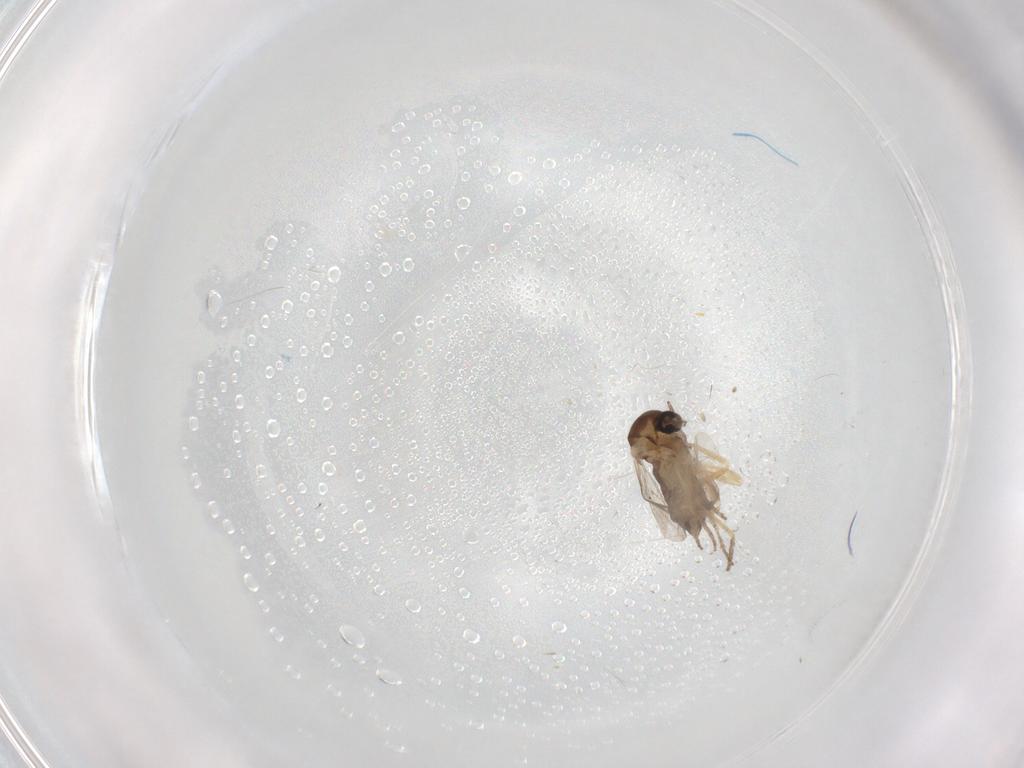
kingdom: Animalia
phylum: Arthropoda
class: Insecta
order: Diptera
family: Ceratopogonidae
